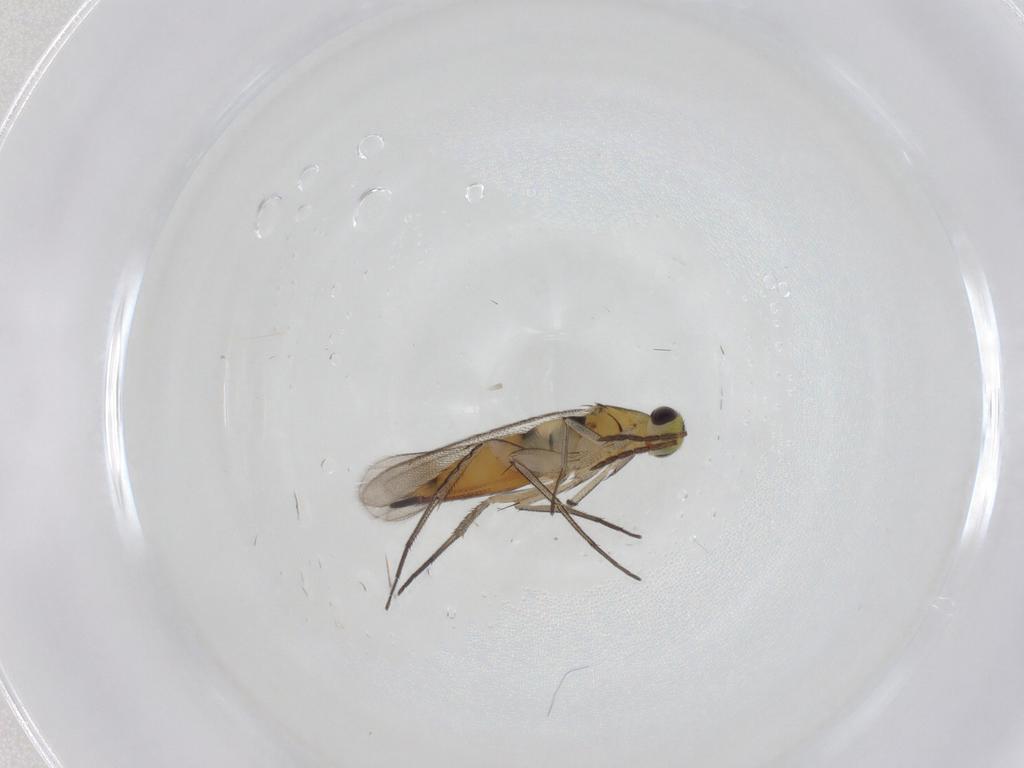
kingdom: Animalia
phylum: Arthropoda
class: Insecta
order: Hymenoptera
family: Eulophidae
